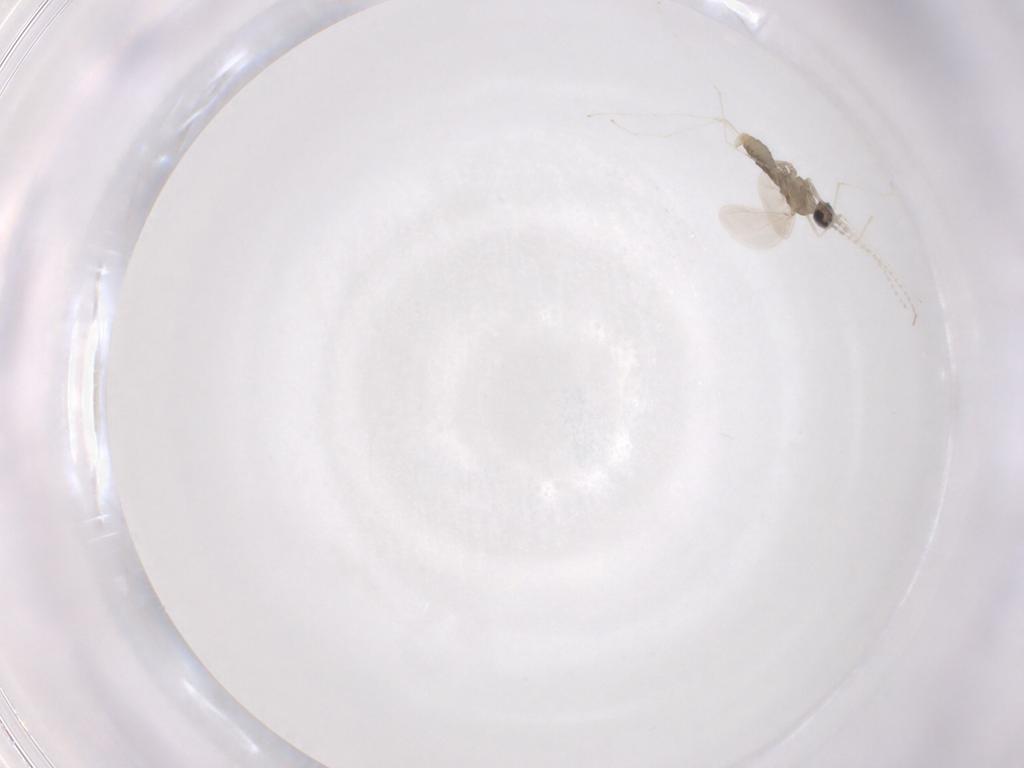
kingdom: Animalia
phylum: Arthropoda
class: Insecta
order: Diptera
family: Cecidomyiidae
